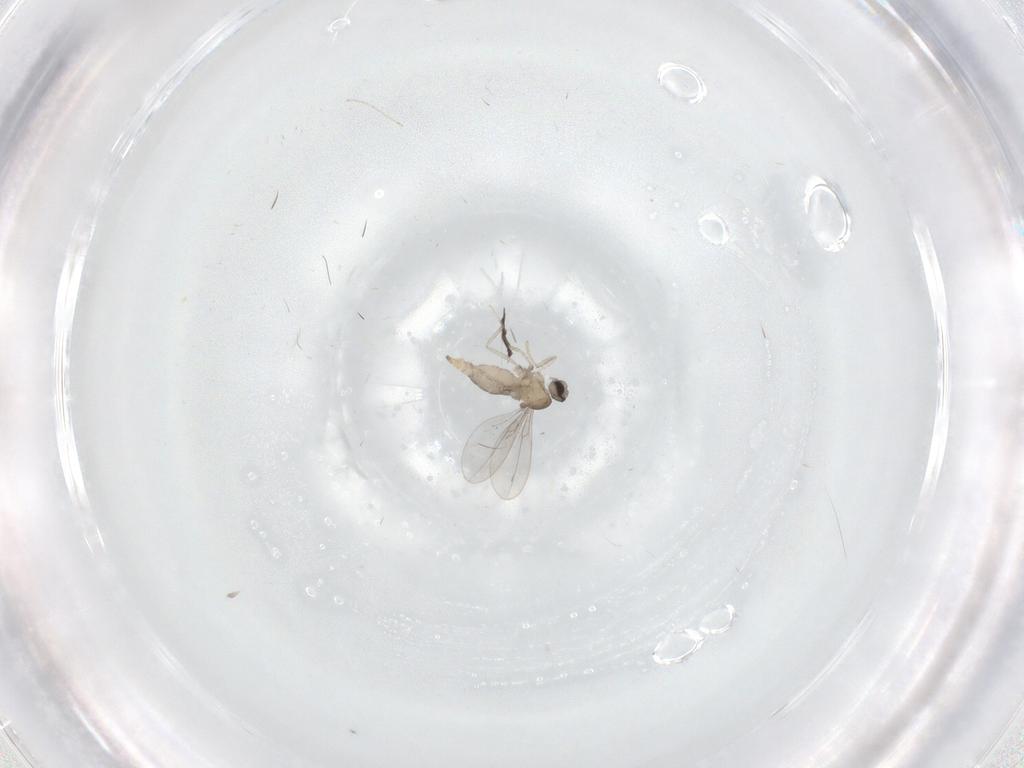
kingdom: Animalia
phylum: Arthropoda
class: Insecta
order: Diptera
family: Cecidomyiidae
